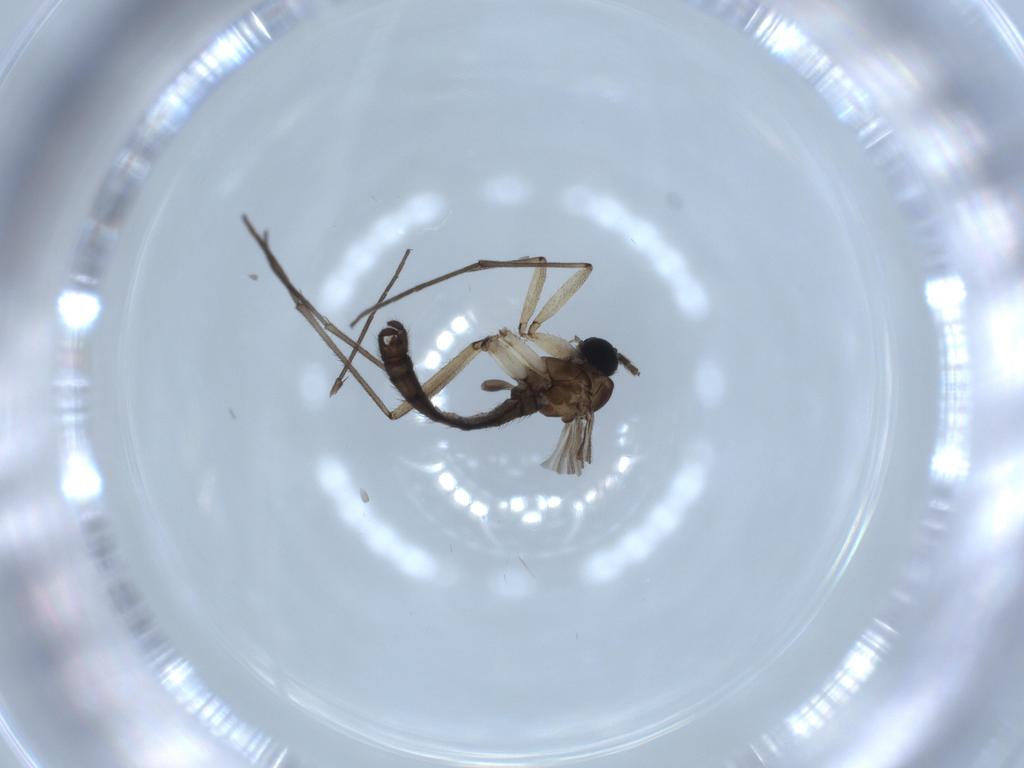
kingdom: Animalia
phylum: Arthropoda
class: Insecta
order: Diptera
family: Sciaridae
